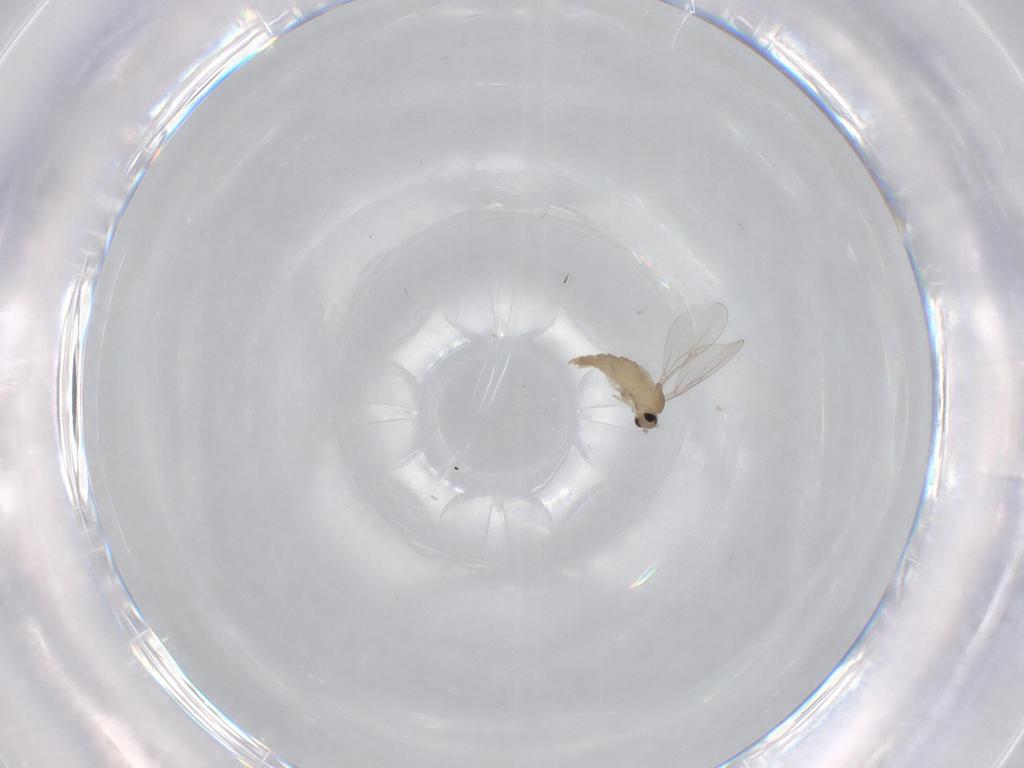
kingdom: Animalia
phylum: Arthropoda
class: Insecta
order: Diptera
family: Cecidomyiidae
